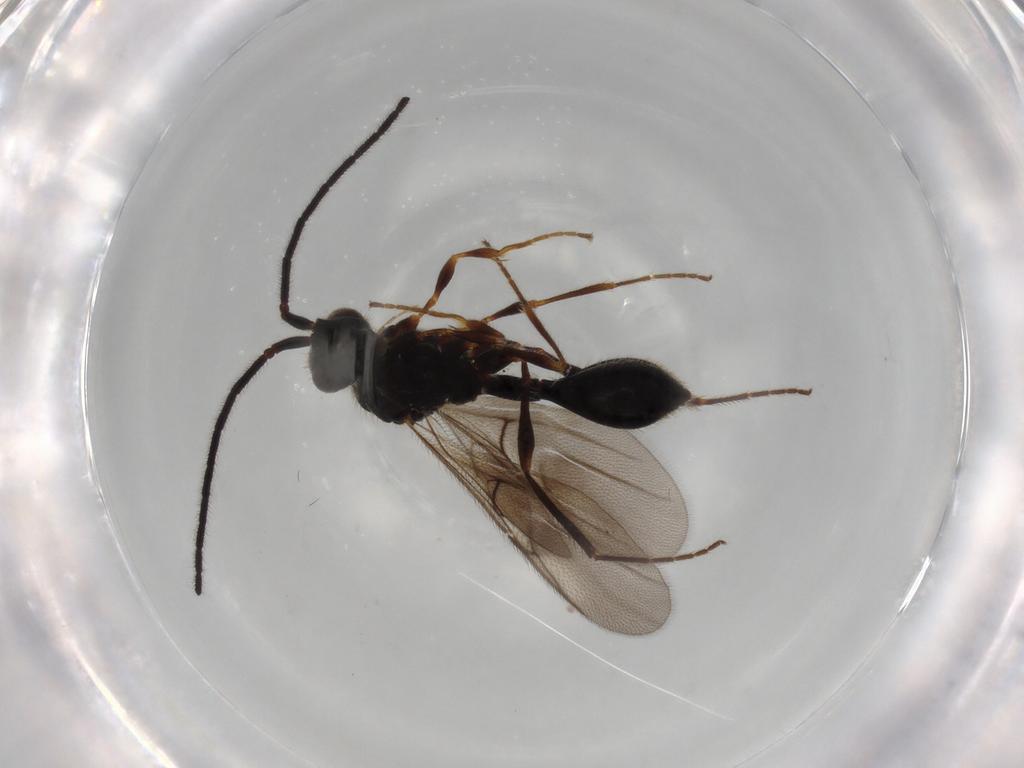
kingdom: Animalia
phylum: Arthropoda
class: Insecta
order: Hymenoptera
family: Diapriidae
